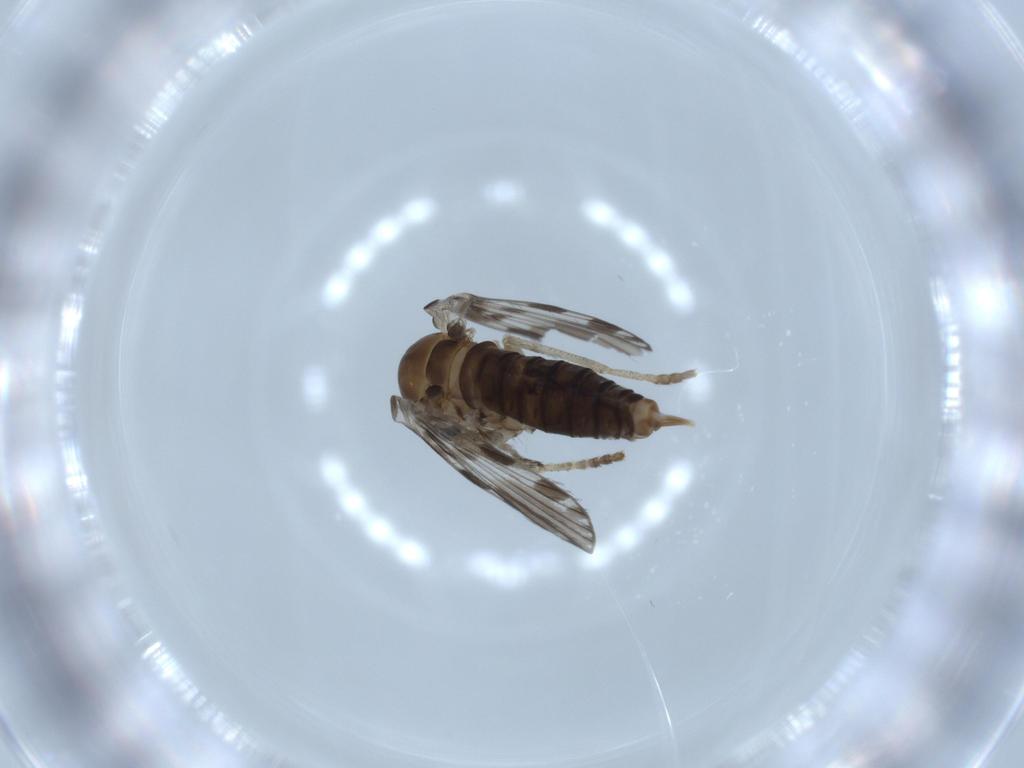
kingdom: Animalia
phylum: Arthropoda
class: Insecta
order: Diptera
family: Psychodidae
